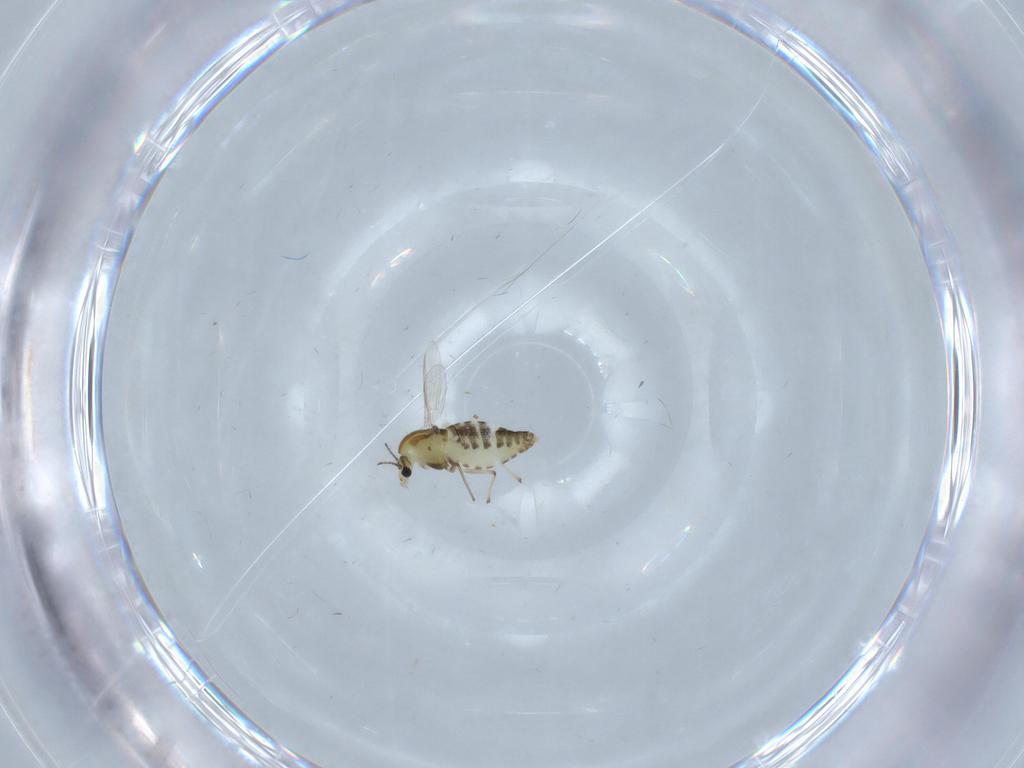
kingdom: Animalia
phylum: Arthropoda
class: Insecta
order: Diptera
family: Chironomidae
